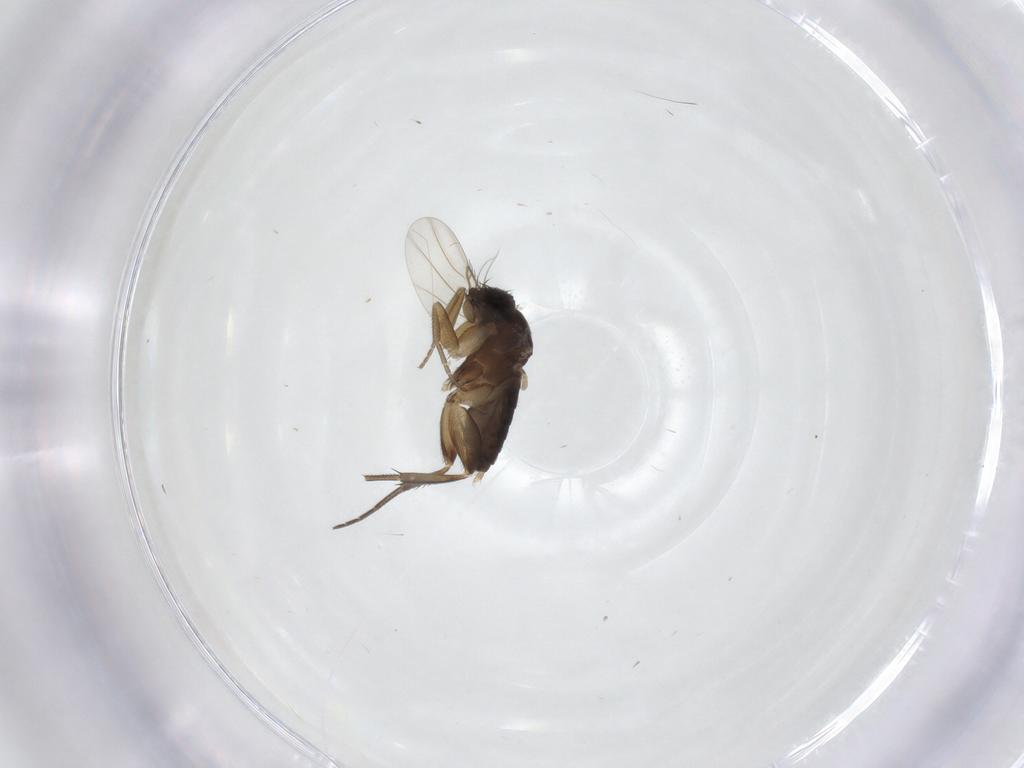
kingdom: Animalia
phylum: Arthropoda
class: Insecta
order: Diptera
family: Phoridae
